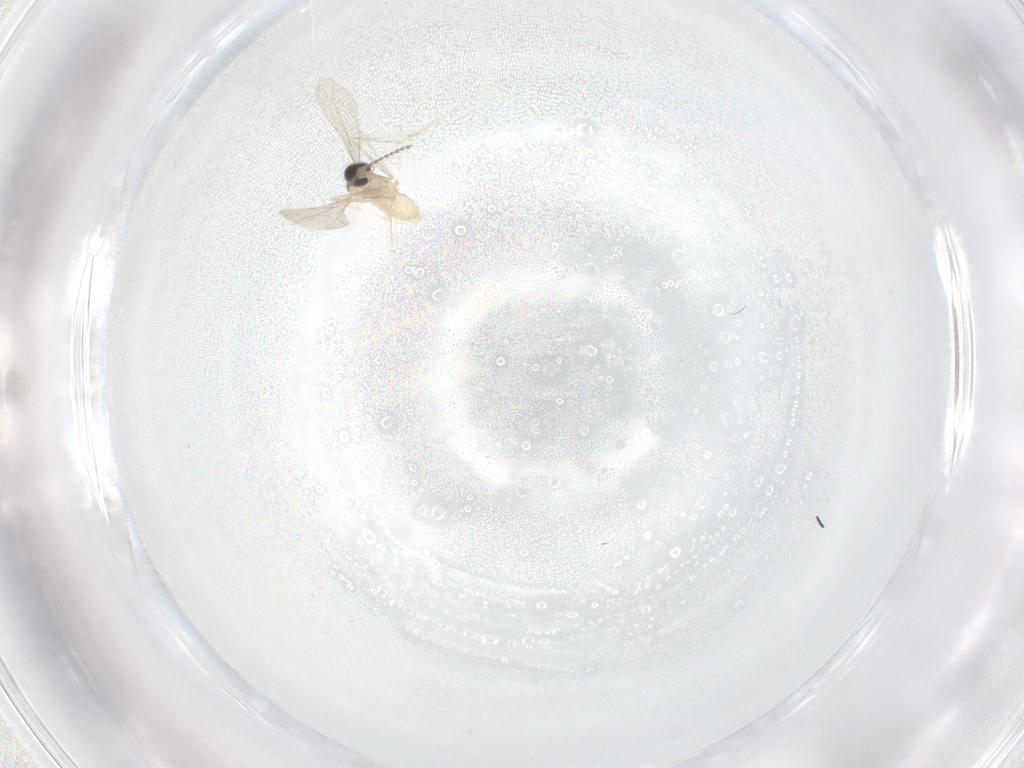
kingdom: Animalia
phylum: Arthropoda
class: Insecta
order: Diptera
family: Cecidomyiidae
